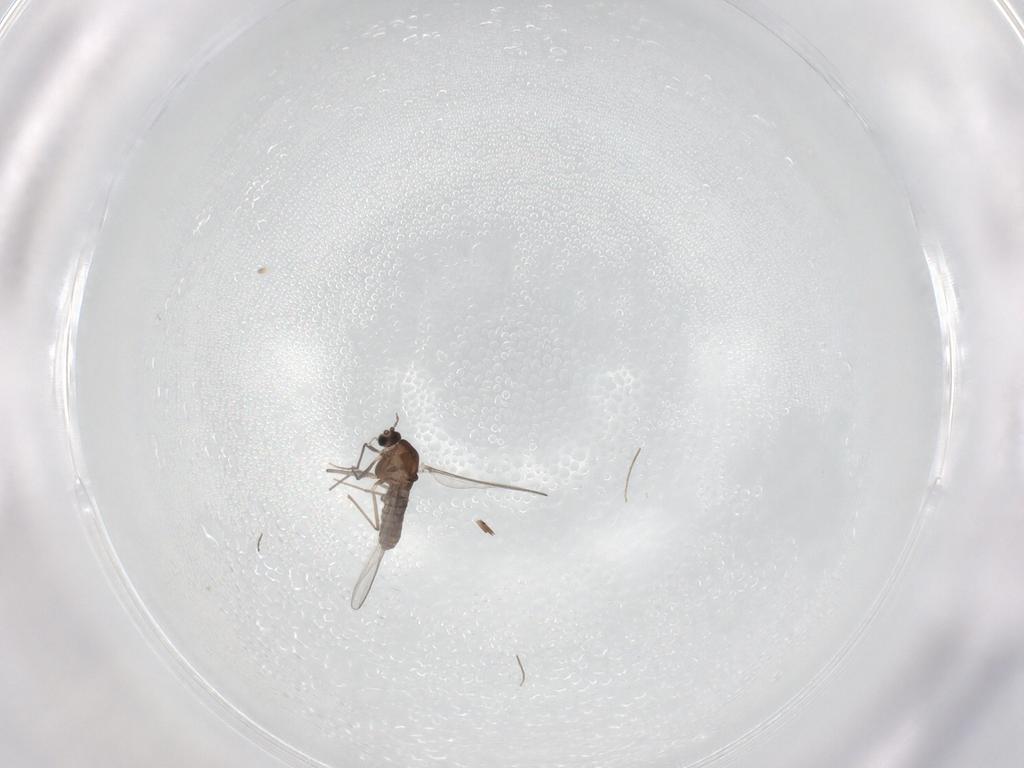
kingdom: Animalia
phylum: Arthropoda
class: Insecta
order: Diptera
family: Chironomidae
